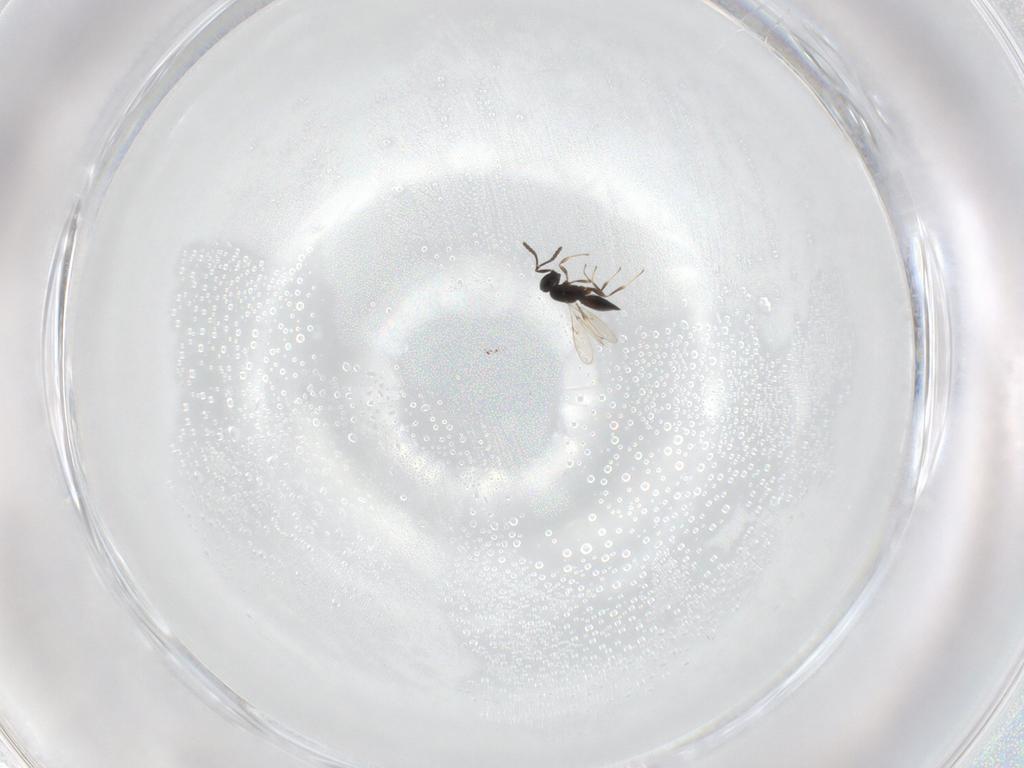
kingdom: Animalia
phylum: Arthropoda
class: Insecta
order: Hymenoptera
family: Scelionidae
